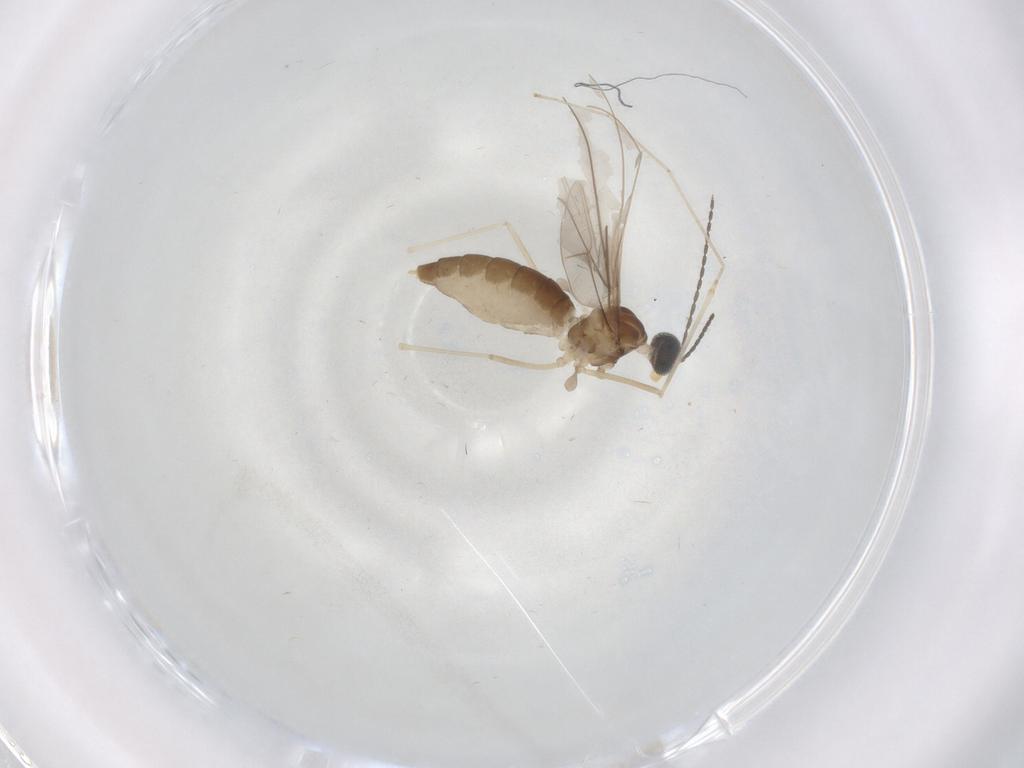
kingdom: Animalia
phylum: Arthropoda
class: Insecta
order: Diptera
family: Cecidomyiidae
